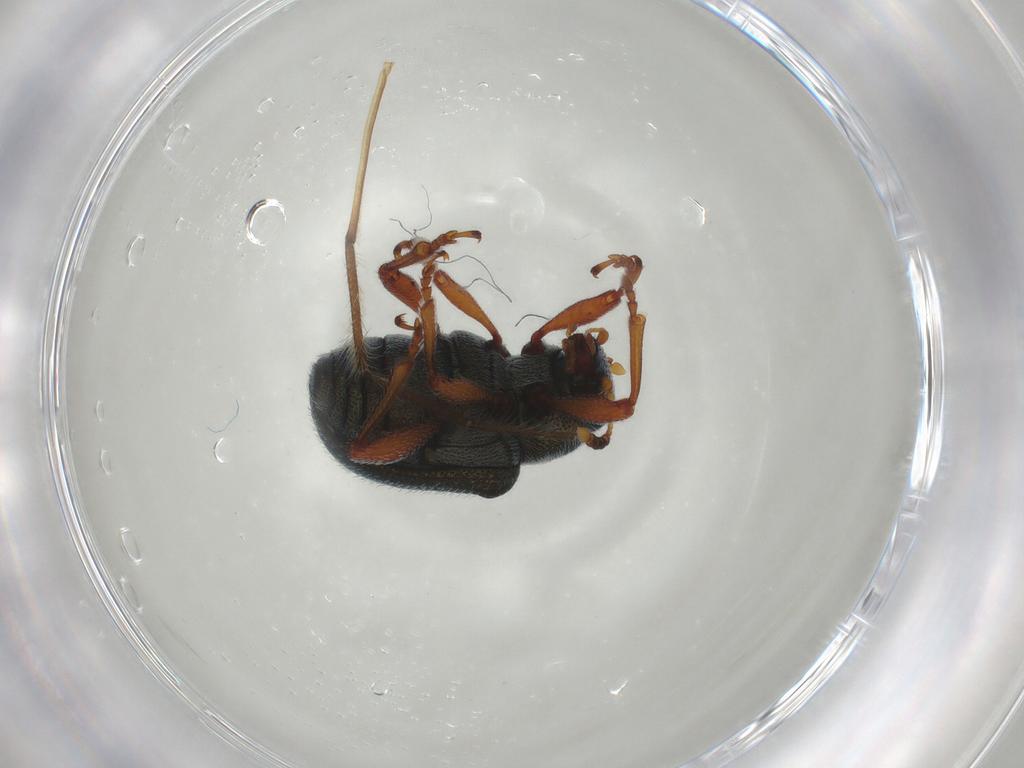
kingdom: Animalia
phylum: Arthropoda
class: Insecta
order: Coleoptera
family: Chrysomelidae
